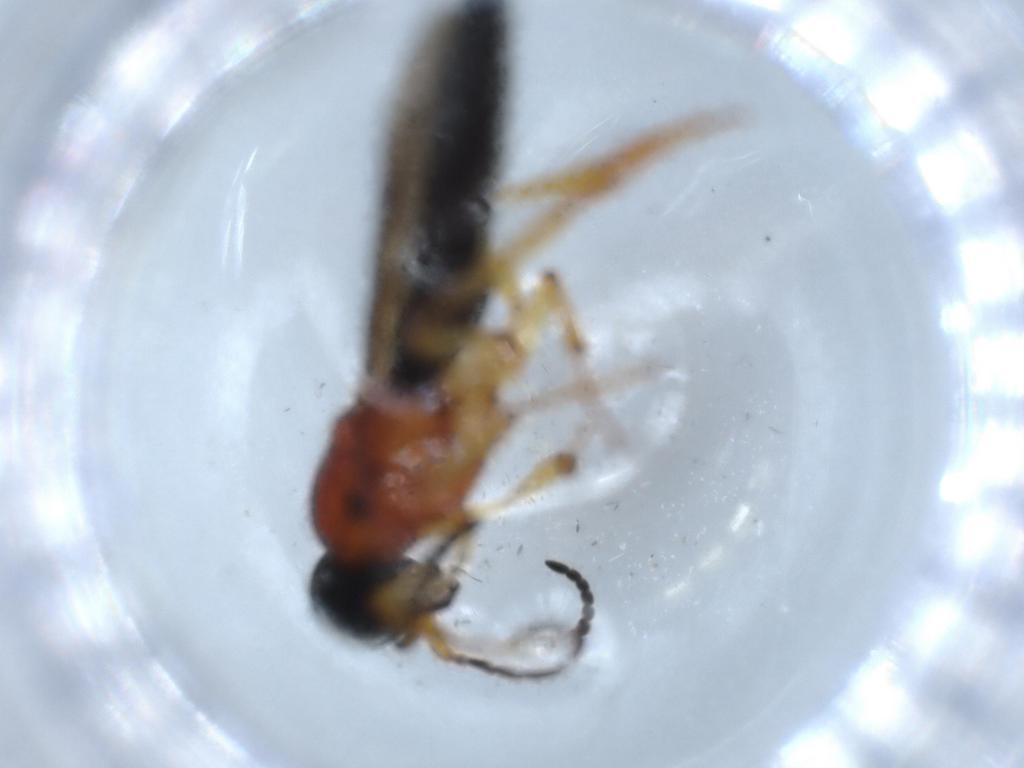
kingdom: Animalia
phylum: Arthropoda
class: Insecta
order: Hymenoptera
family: Scelionidae
